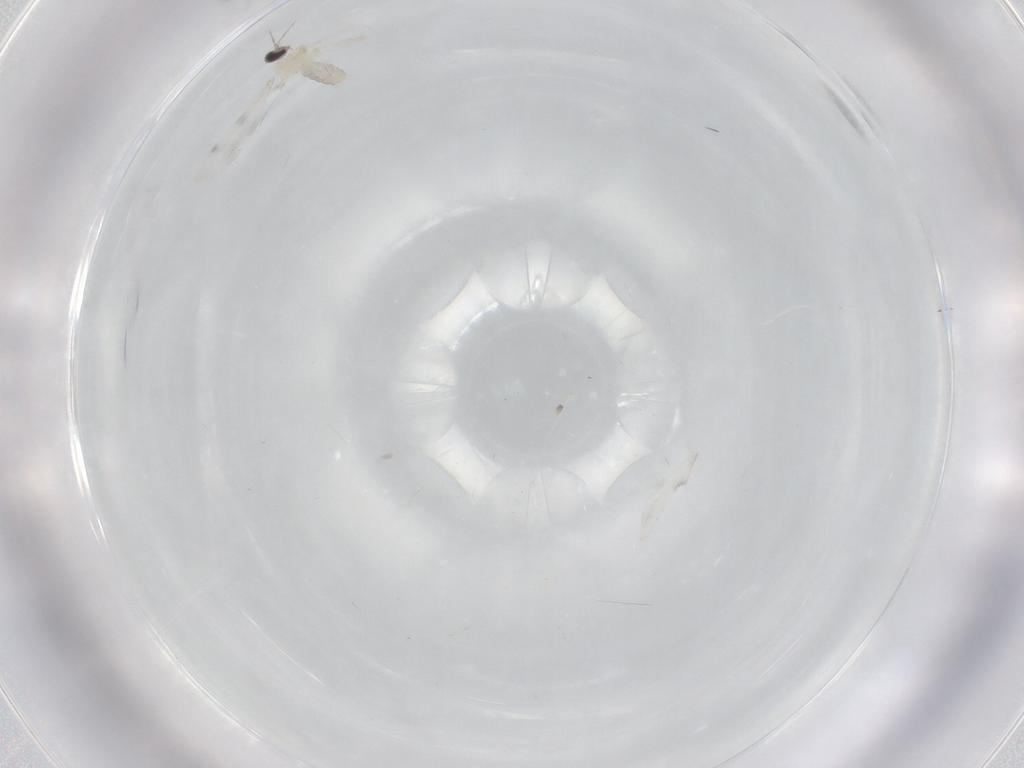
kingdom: Animalia
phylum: Arthropoda
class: Insecta
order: Diptera
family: Cecidomyiidae
